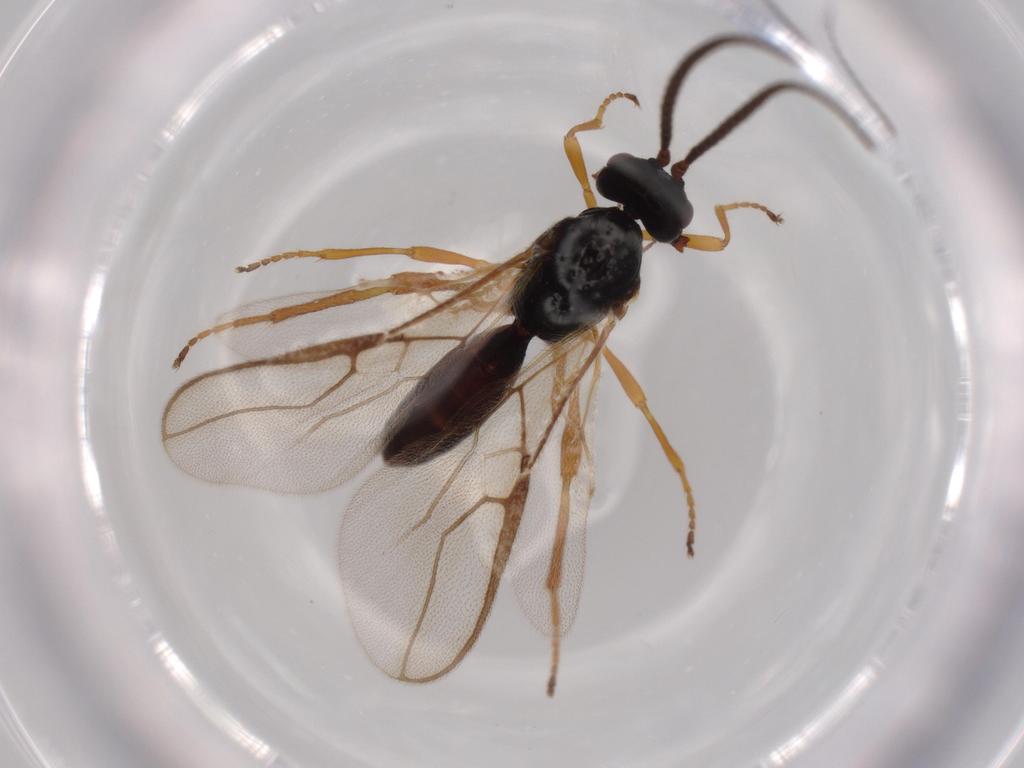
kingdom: Animalia
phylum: Arthropoda
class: Insecta
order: Hymenoptera
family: Braconidae
